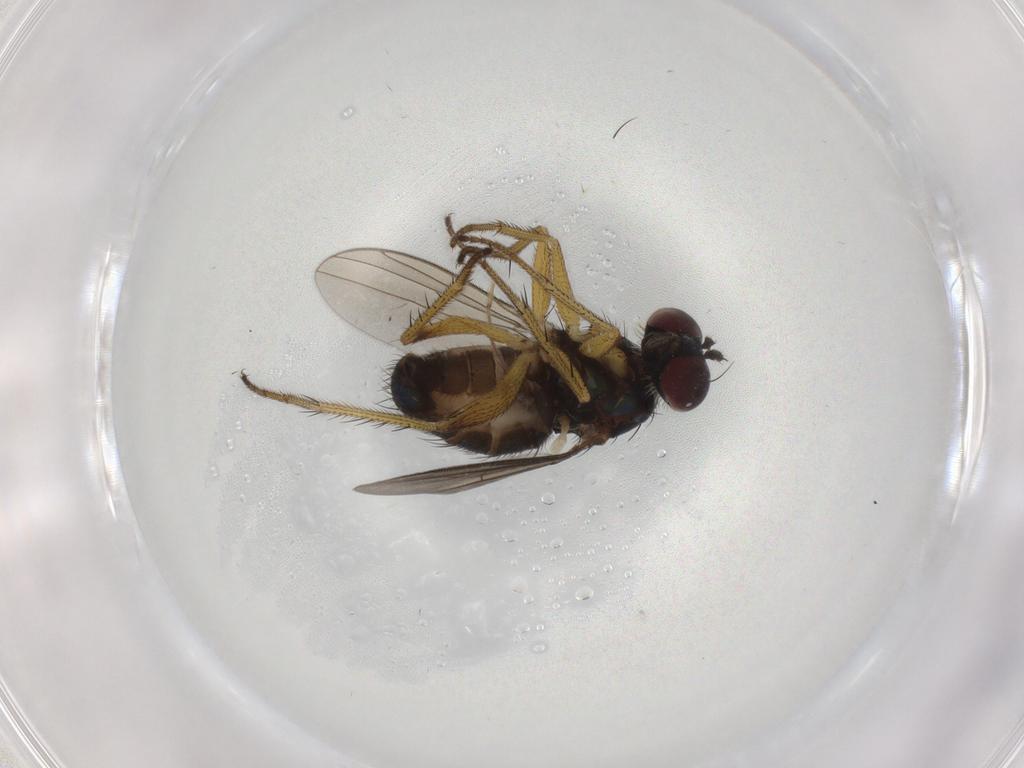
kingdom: Animalia
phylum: Arthropoda
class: Insecta
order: Diptera
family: Dolichopodidae
